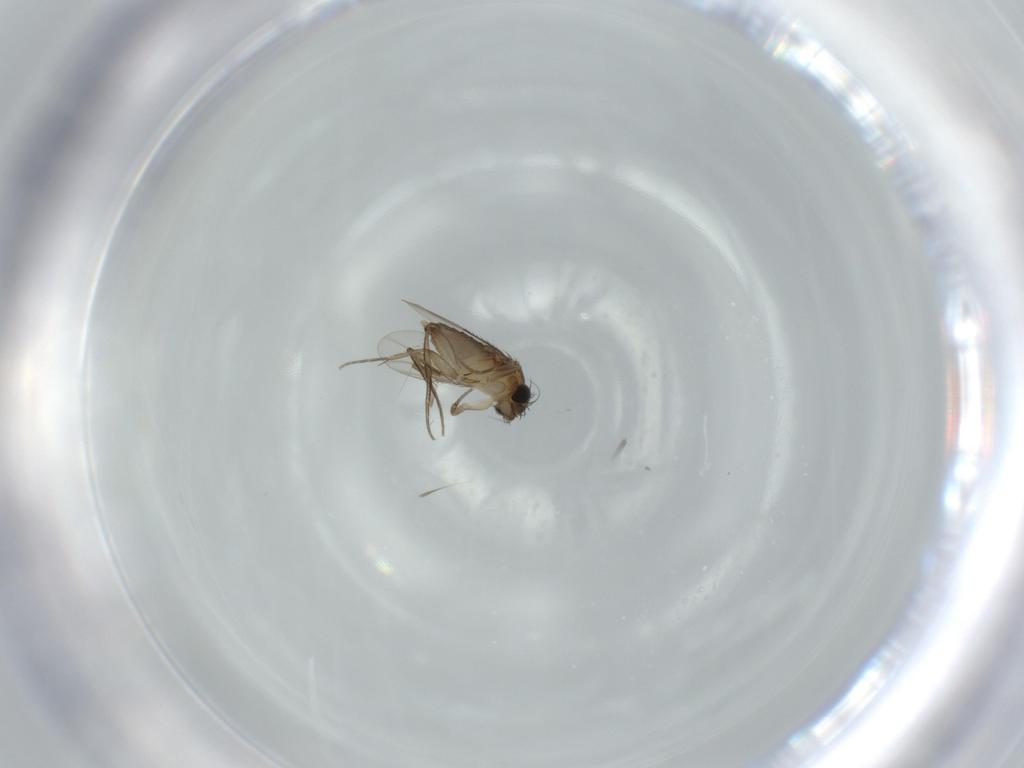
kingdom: Animalia
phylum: Arthropoda
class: Insecta
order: Diptera
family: Phoridae
